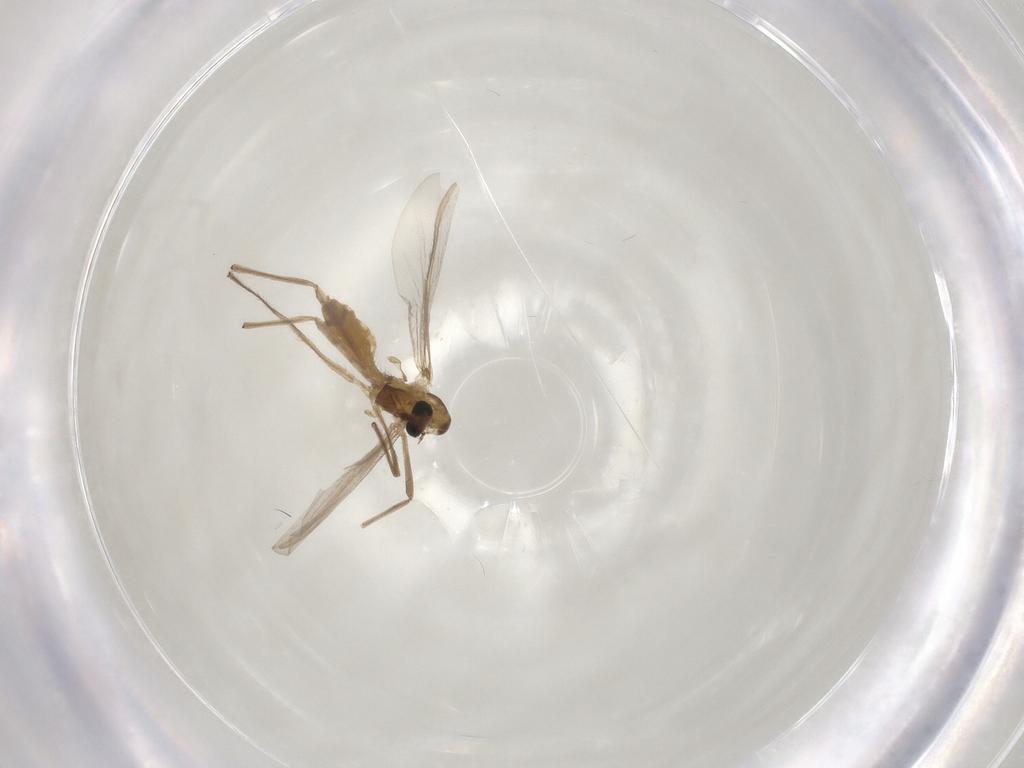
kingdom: Animalia
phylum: Arthropoda
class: Insecta
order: Diptera
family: Chironomidae
